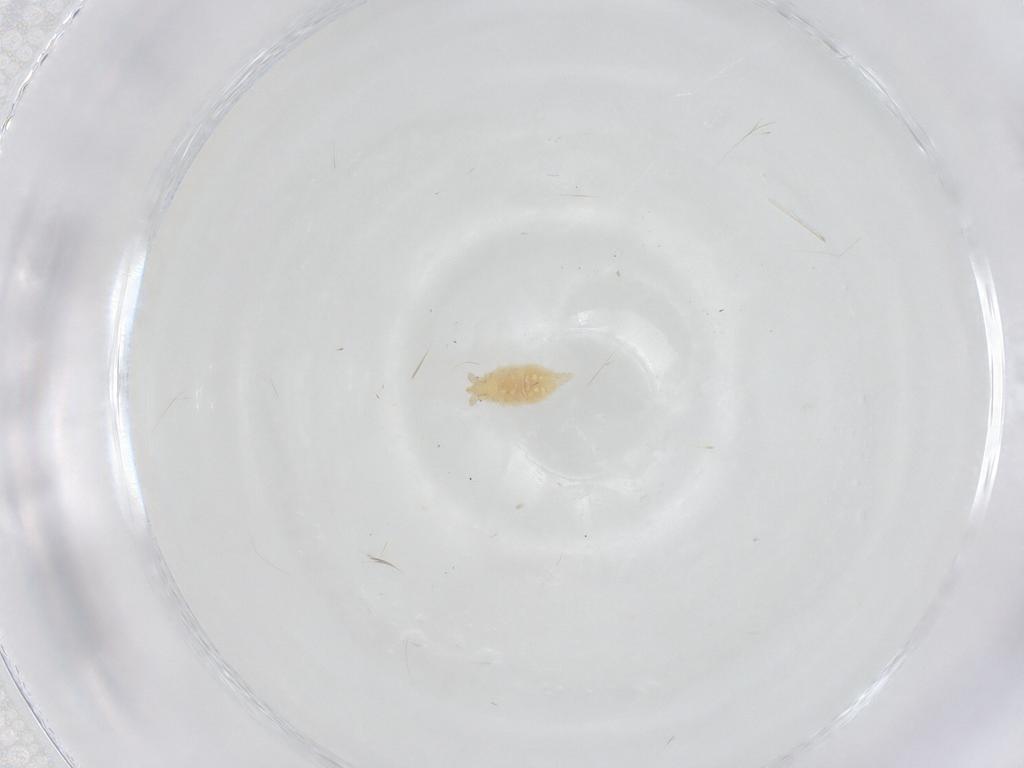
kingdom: Animalia
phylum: Arthropoda
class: Insecta
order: Neuroptera
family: Coniopterygidae
